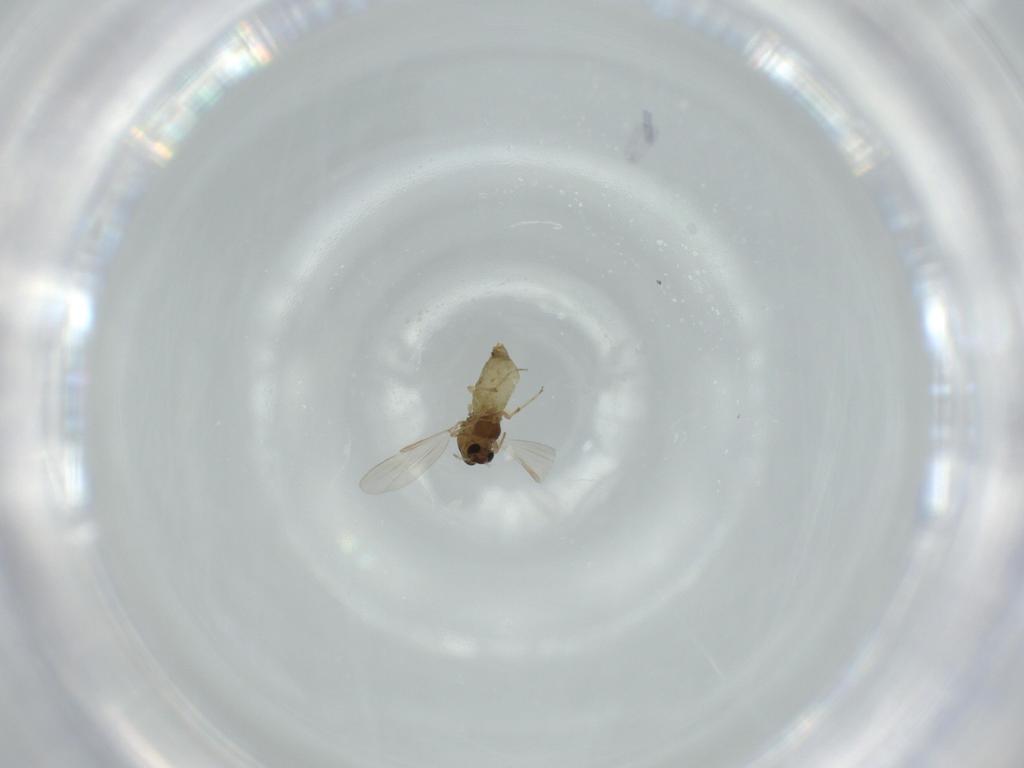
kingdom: Animalia
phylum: Arthropoda
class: Insecta
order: Diptera
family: Chironomidae
